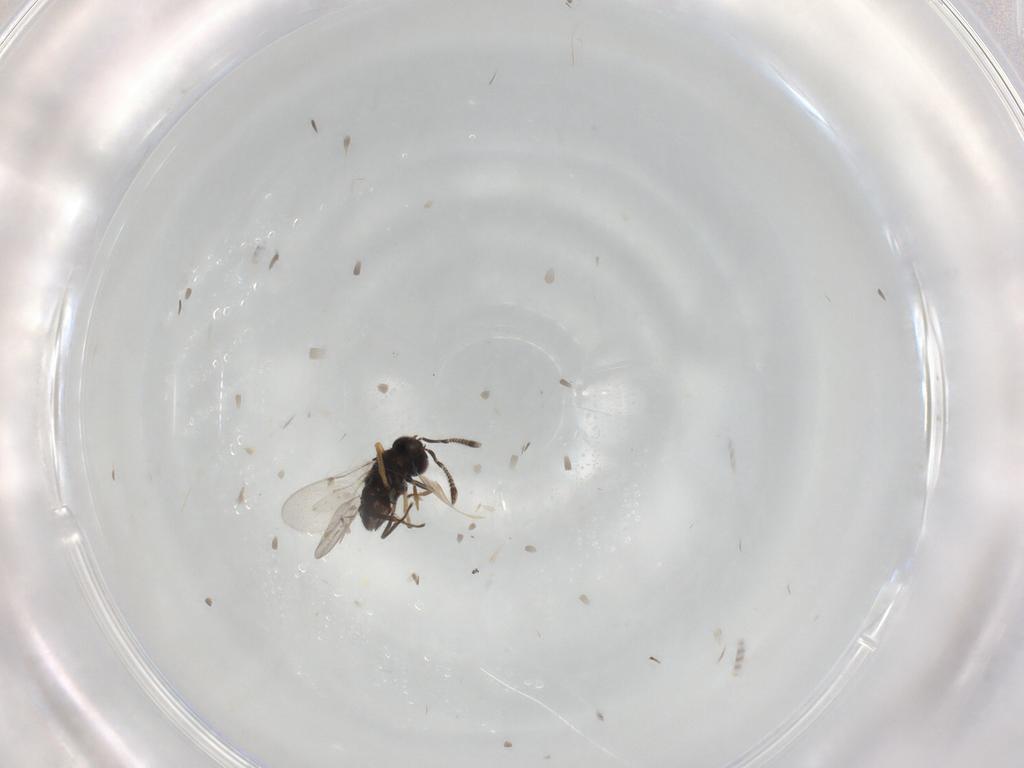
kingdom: Animalia
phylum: Arthropoda
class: Insecta
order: Hymenoptera
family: Encyrtidae
